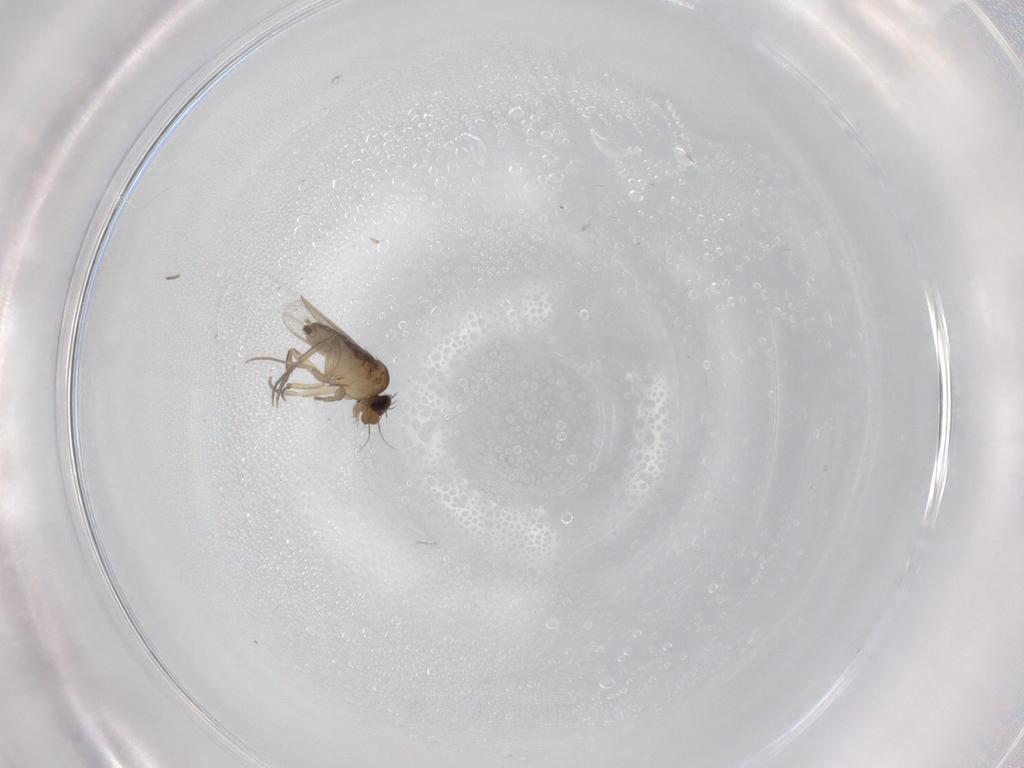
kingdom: Animalia
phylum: Arthropoda
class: Insecta
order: Diptera
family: Phoridae
